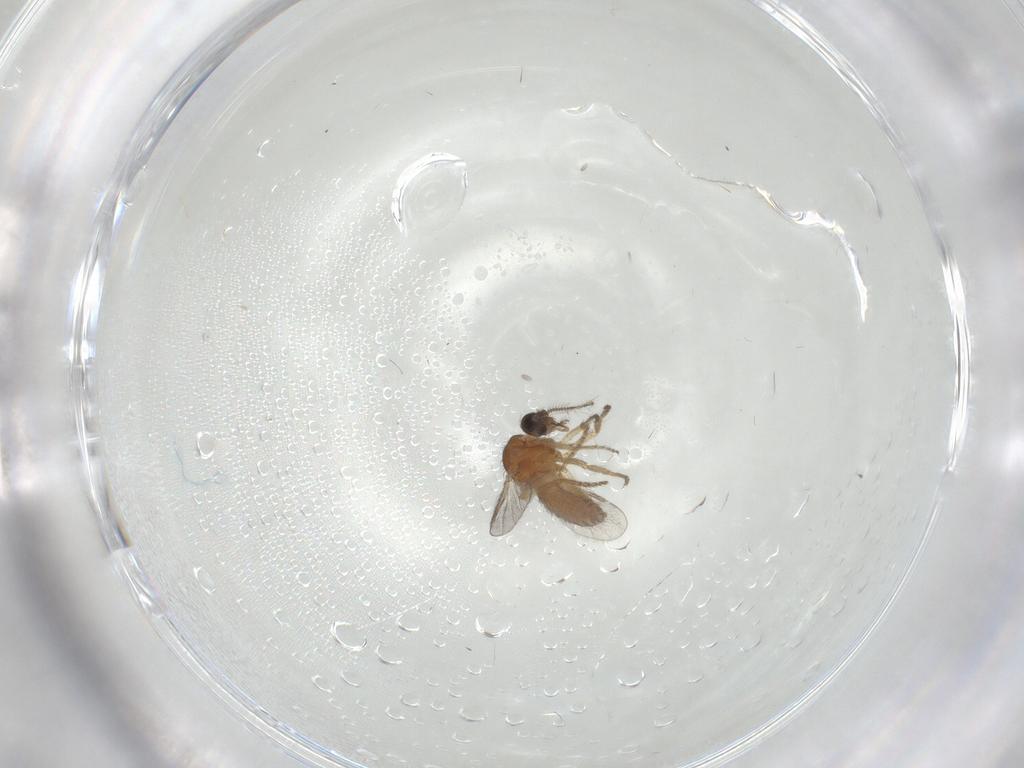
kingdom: Animalia
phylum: Arthropoda
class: Insecta
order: Diptera
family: Ceratopogonidae
